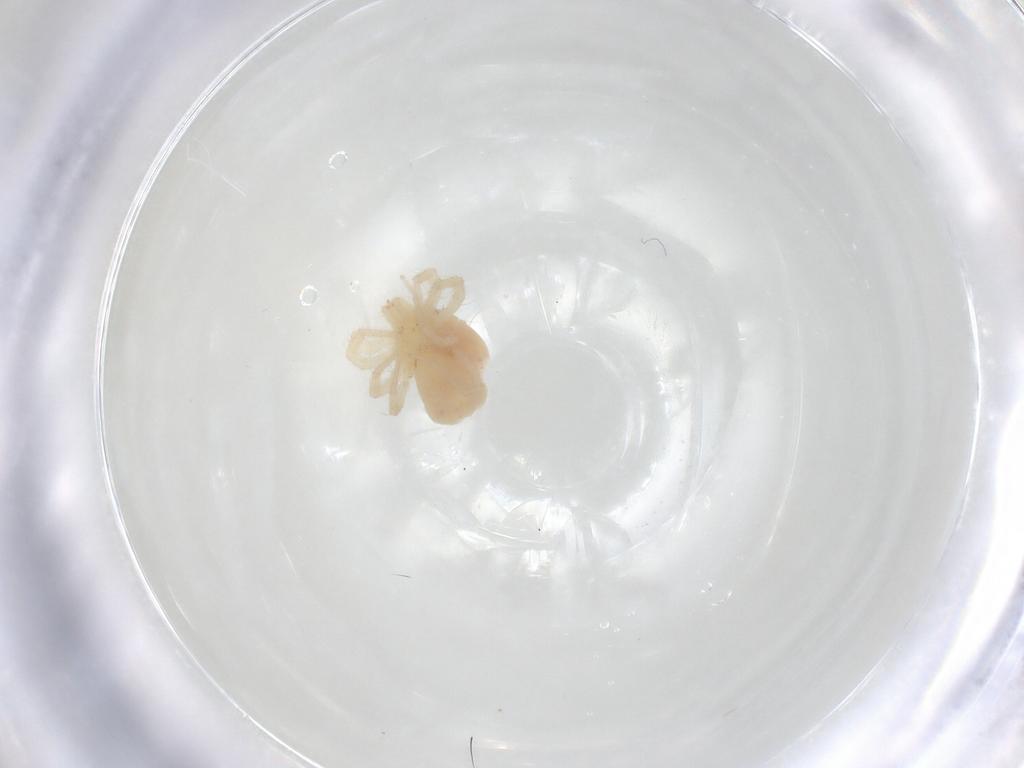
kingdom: Animalia
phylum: Arthropoda
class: Arachnida
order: Trombidiformes
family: Anystidae
